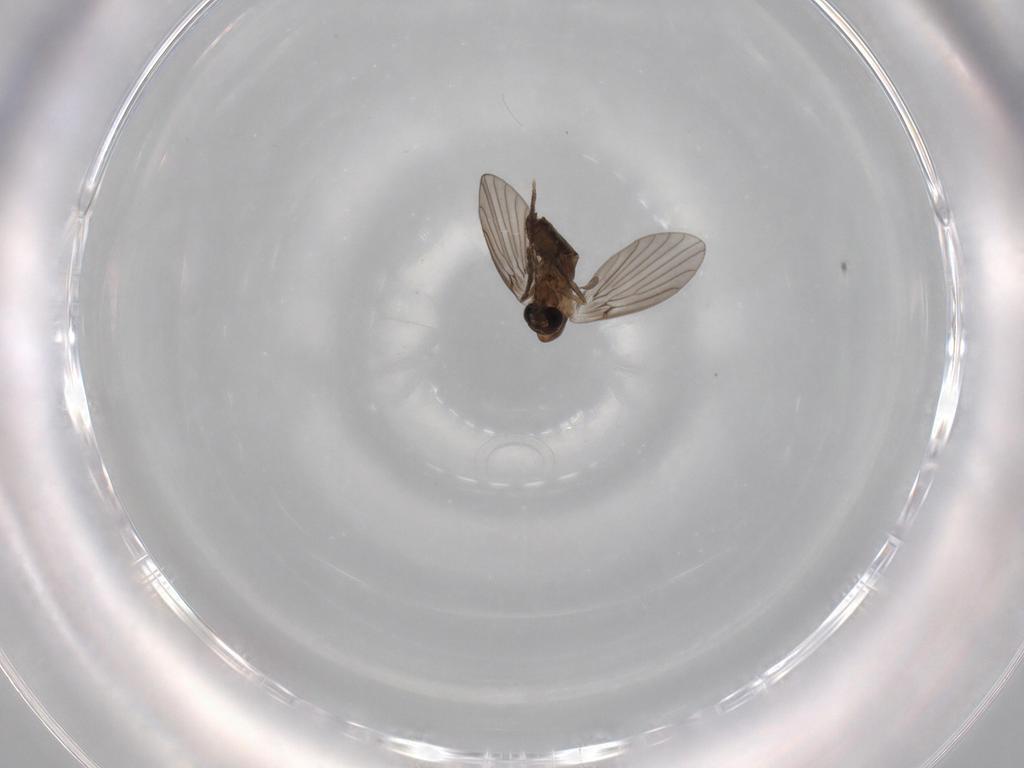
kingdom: Animalia
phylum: Arthropoda
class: Insecta
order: Diptera
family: Psychodidae
